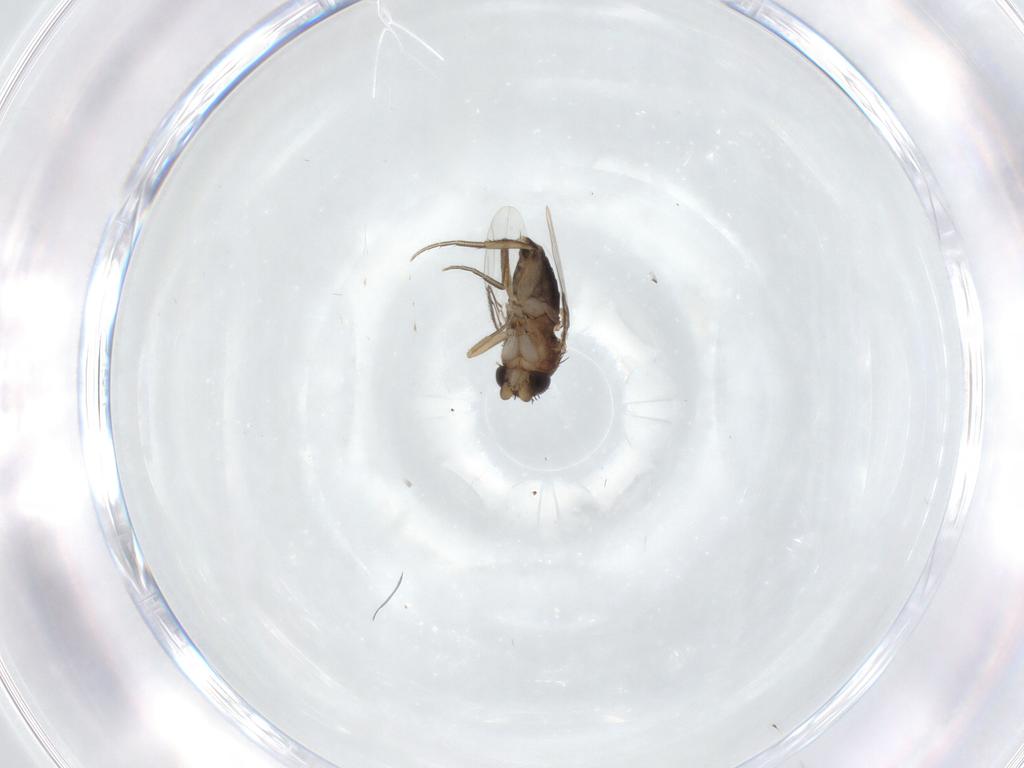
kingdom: Animalia
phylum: Arthropoda
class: Insecta
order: Diptera
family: Phoridae
